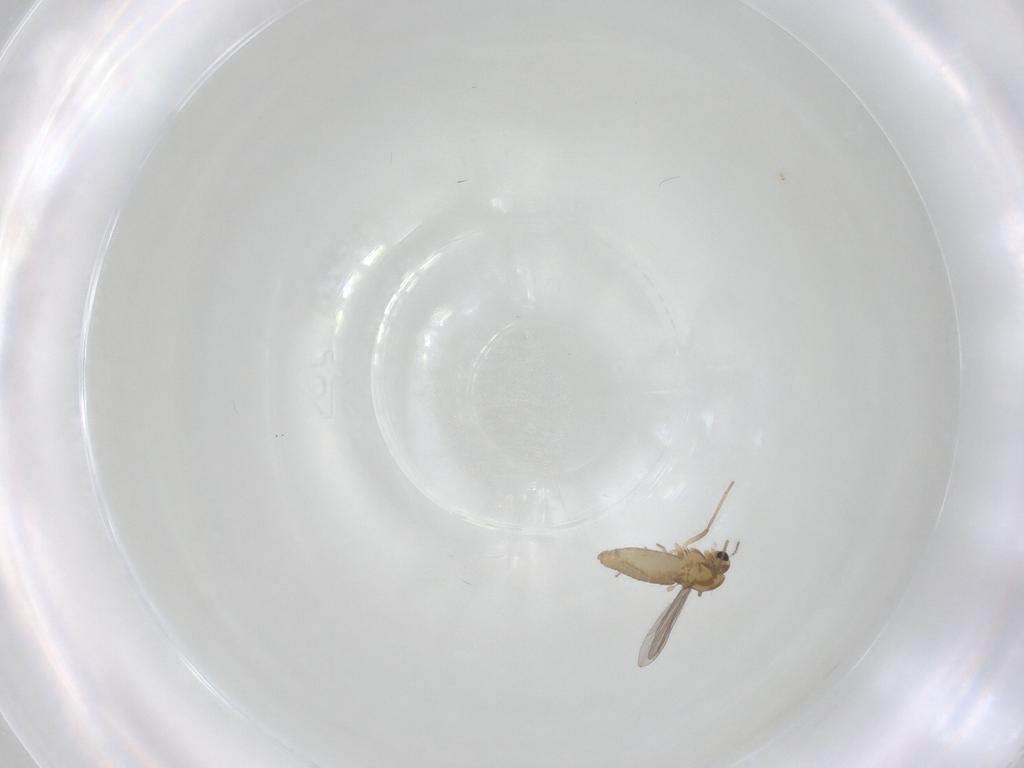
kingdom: Animalia
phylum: Arthropoda
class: Insecta
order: Diptera
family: Chironomidae
